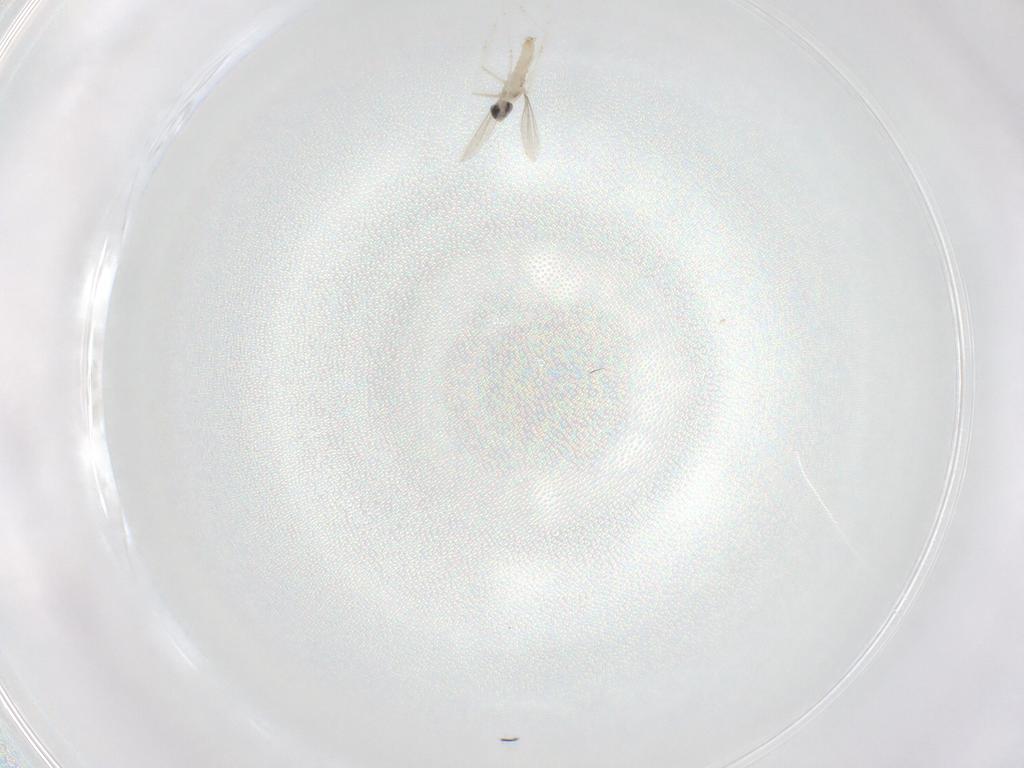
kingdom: Animalia
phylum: Arthropoda
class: Insecta
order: Diptera
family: Cecidomyiidae
